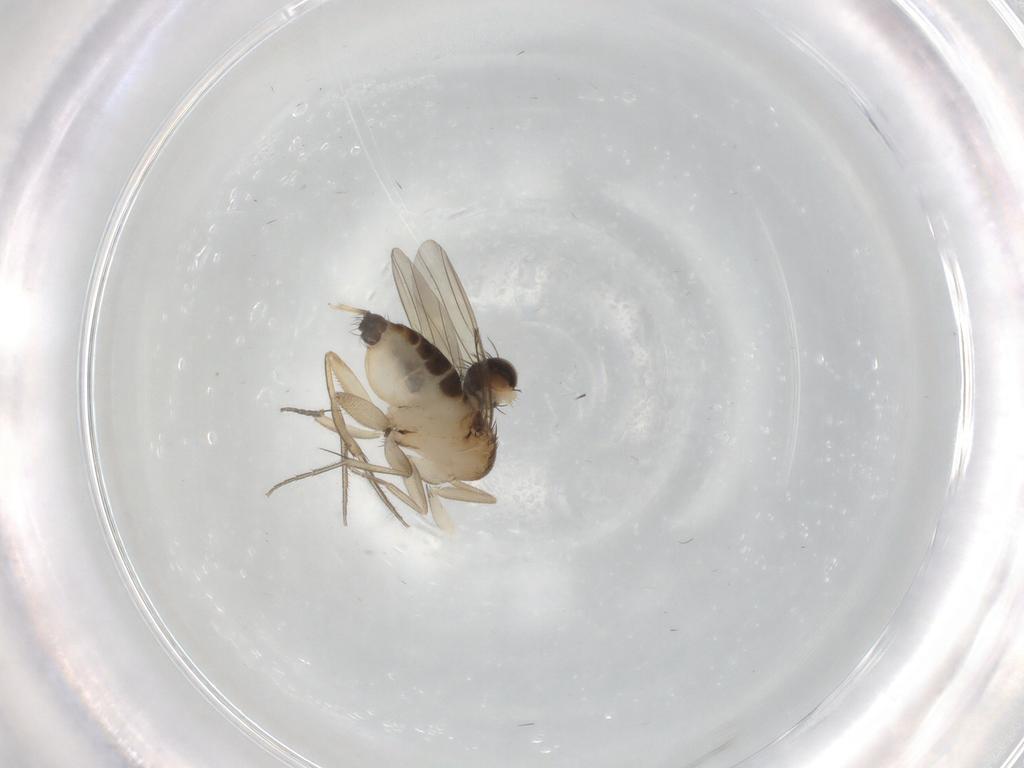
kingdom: Animalia
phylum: Arthropoda
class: Insecta
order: Diptera
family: Phoridae
